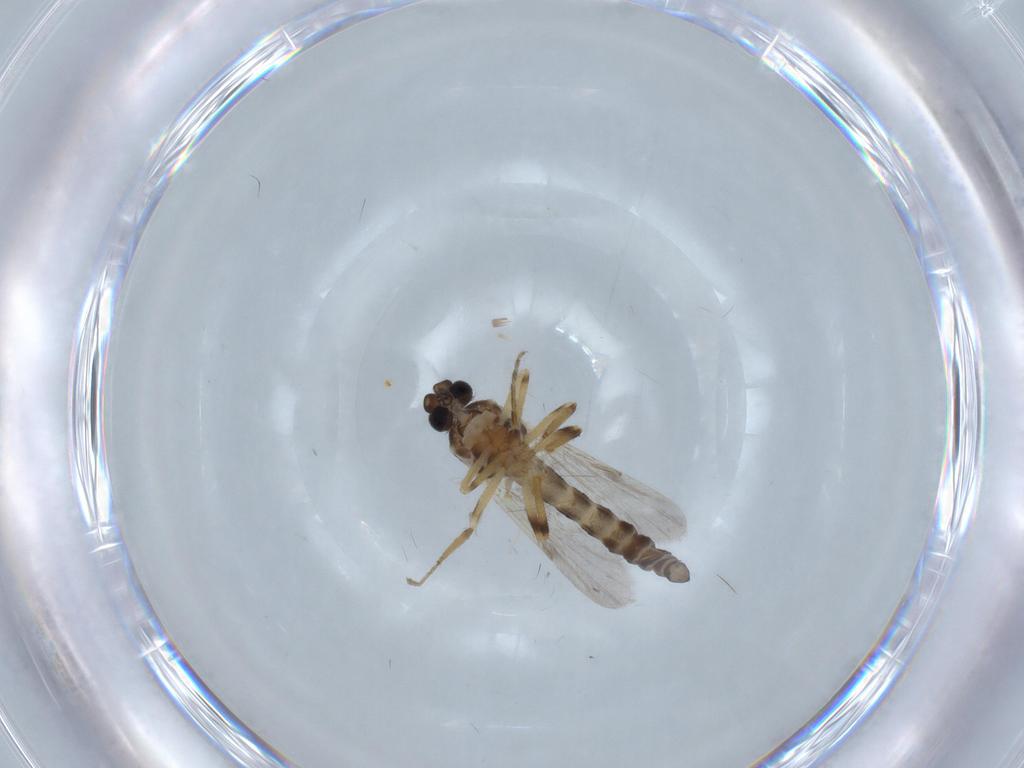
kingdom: Animalia
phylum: Arthropoda
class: Insecta
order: Diptera
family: Ceratopogonidae
